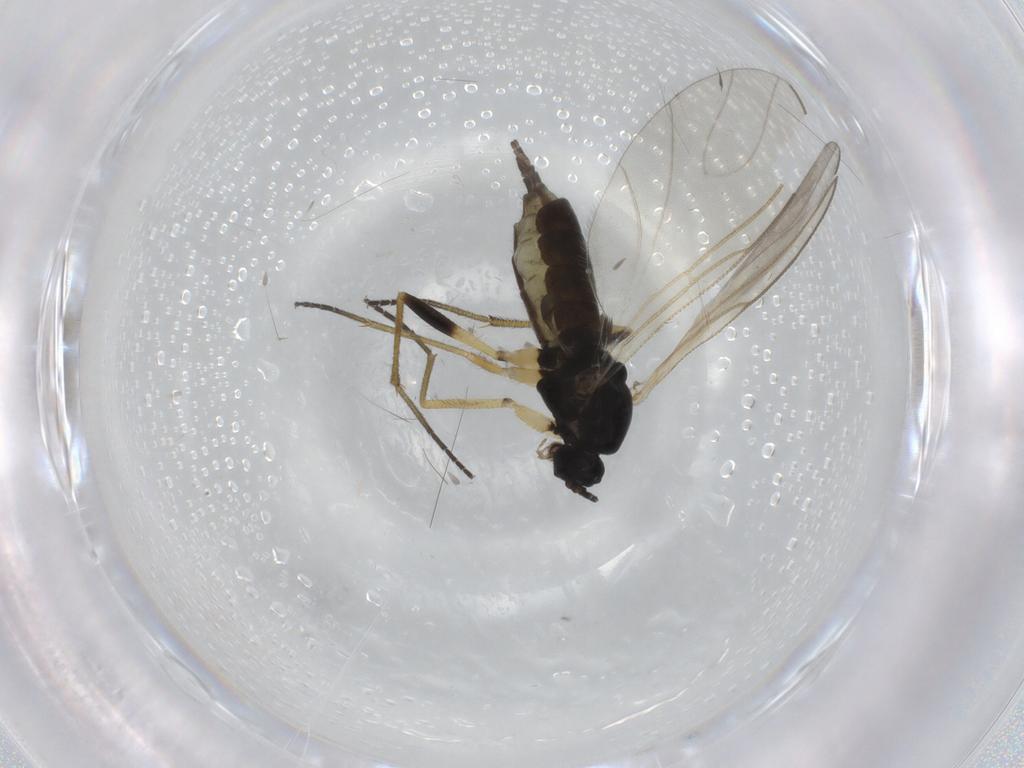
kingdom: Animalia
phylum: Arthropoda
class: Insecta
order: Diptera
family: Sciaridae
